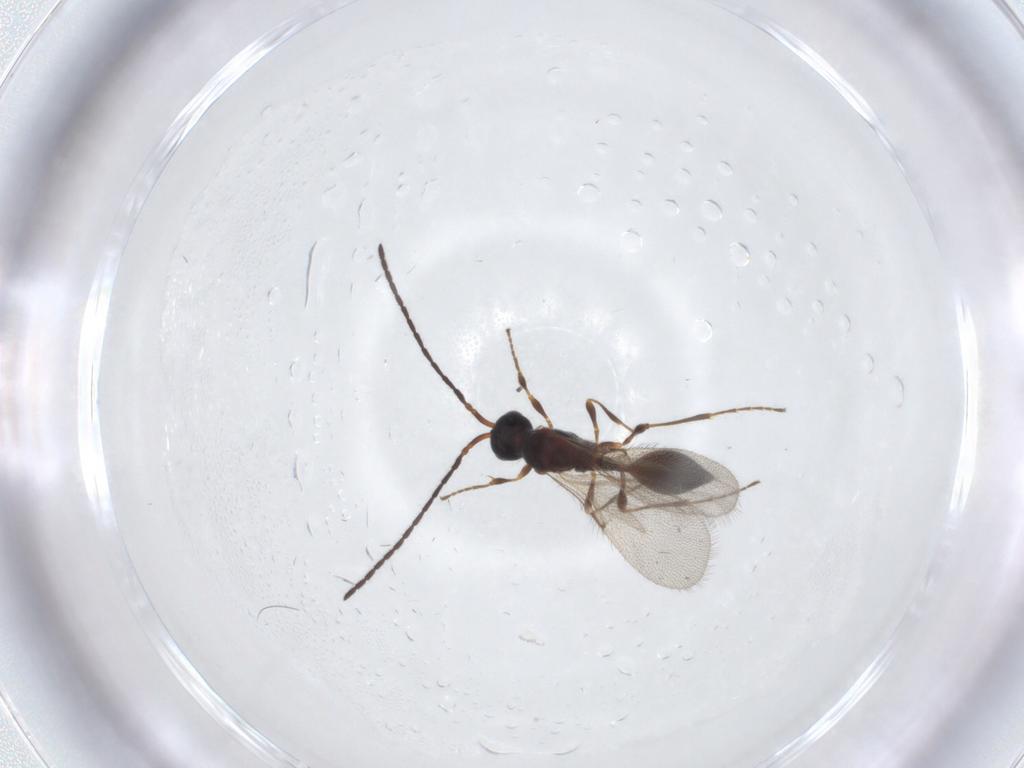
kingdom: Animalia
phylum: Arthropoda
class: Insecta
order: Hymenoptera
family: Diapriidae
